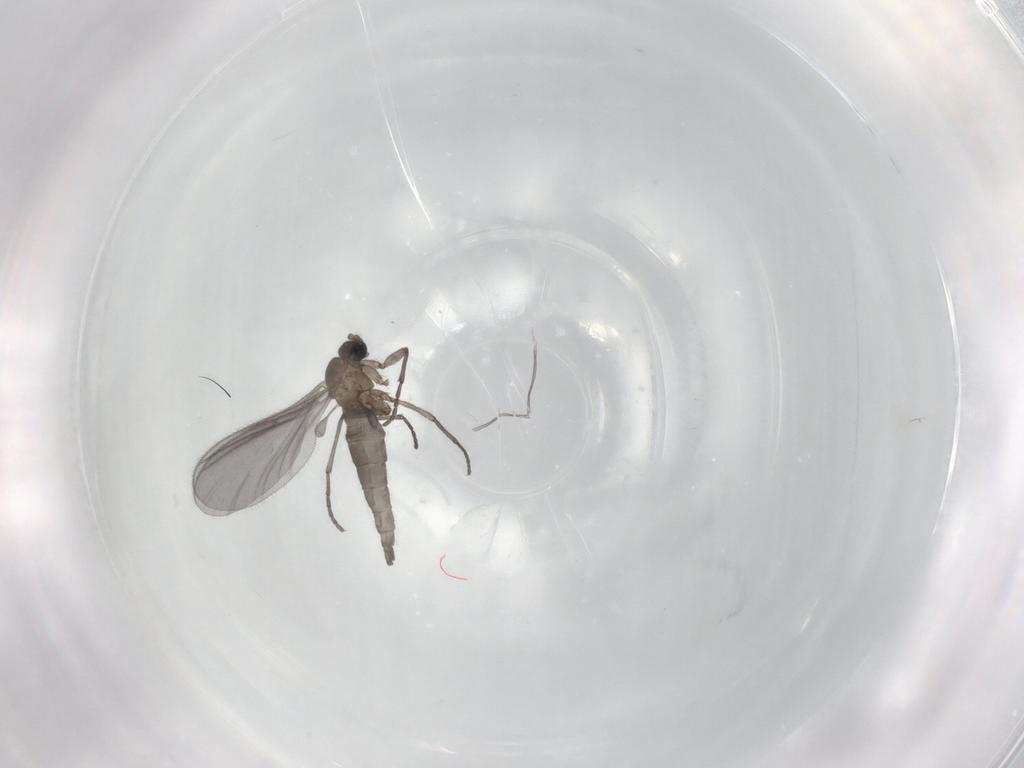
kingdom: Animalia
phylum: Arthropoda
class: Insecta
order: Diptera
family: Sciaridae
